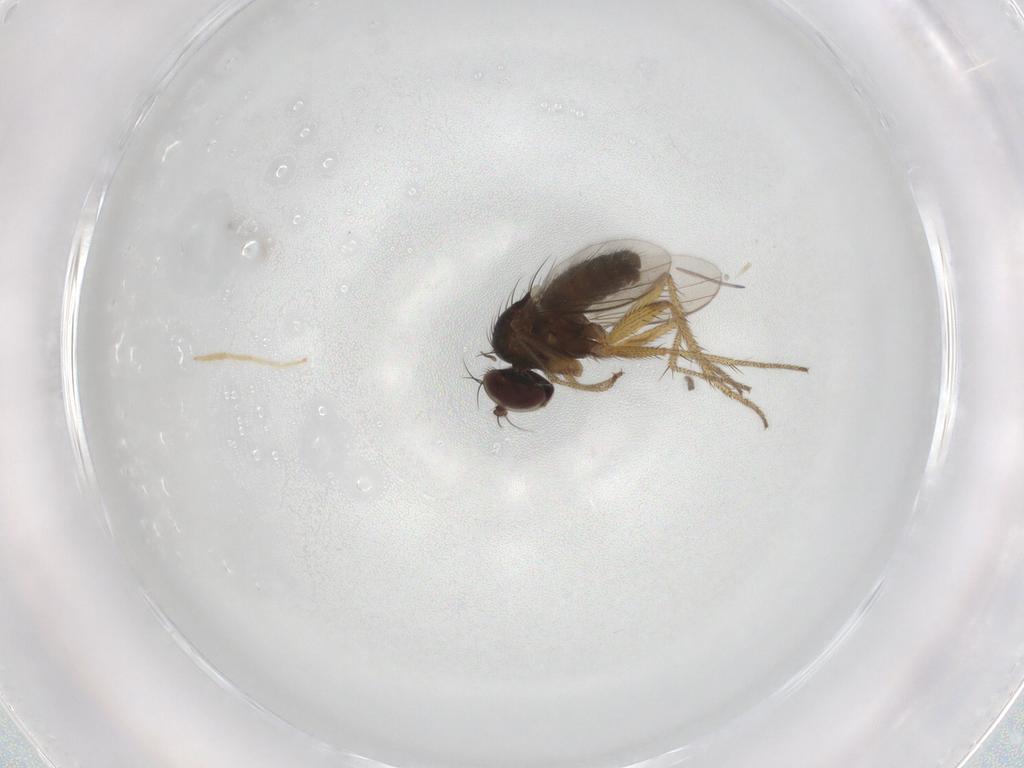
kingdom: Animalia
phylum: Arthropoda
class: Insecta
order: Diptera
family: Chironomidae
